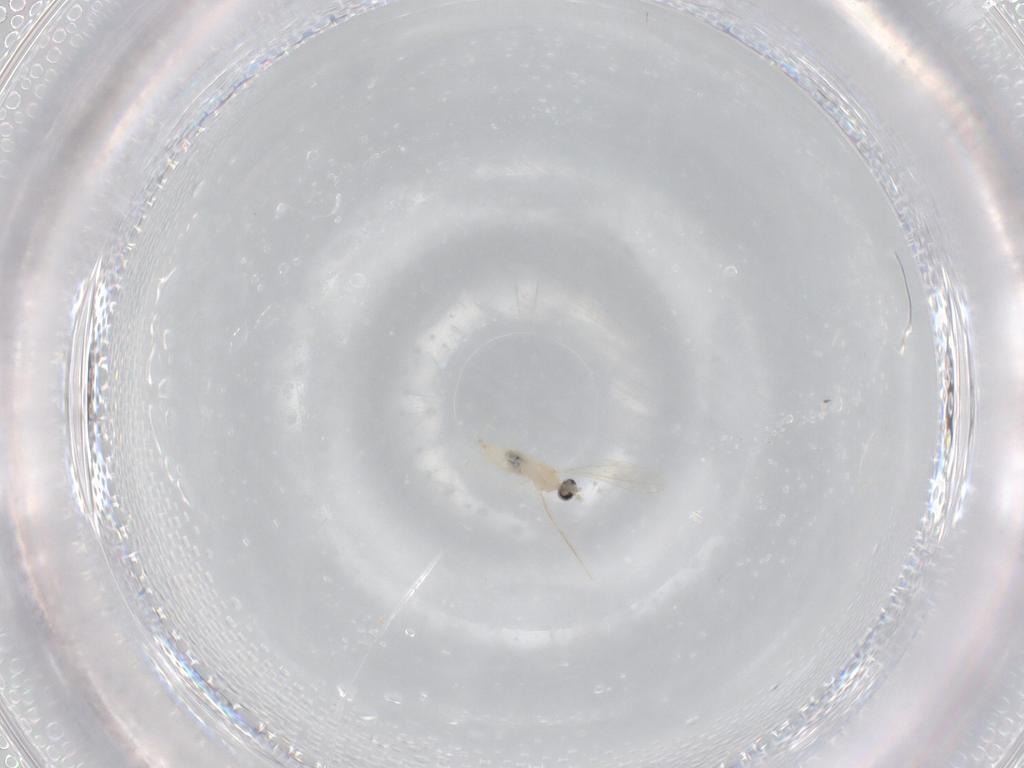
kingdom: Animalia
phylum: Arthropoda
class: Insecta
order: Diptera
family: Cecidomyiidae
